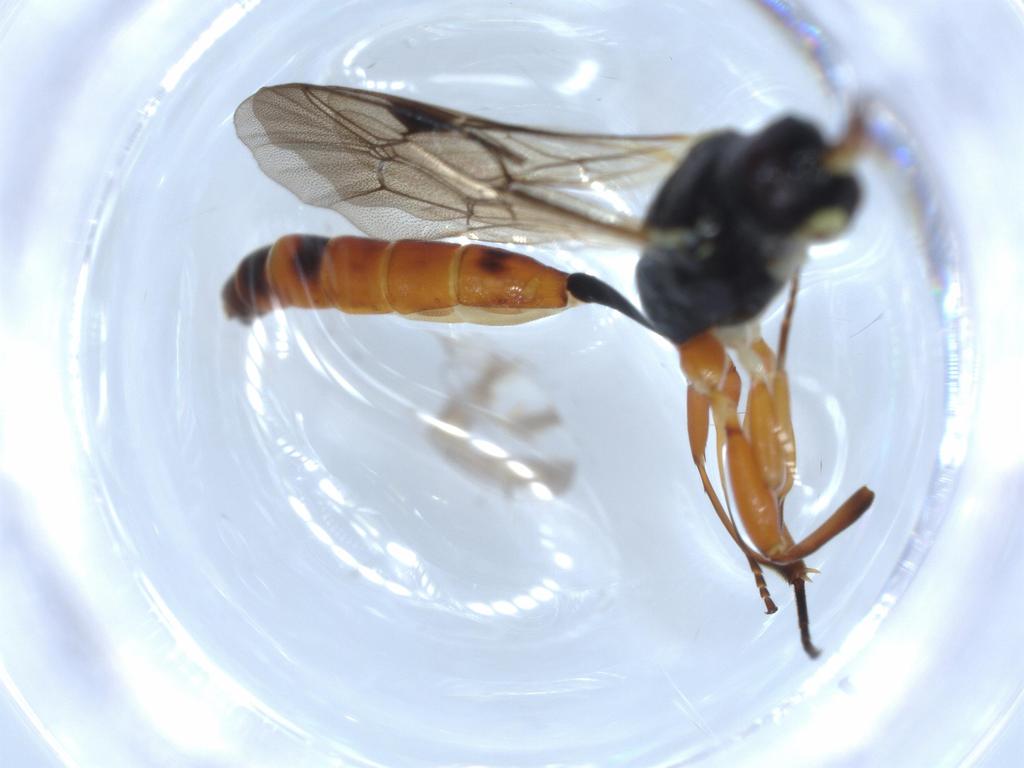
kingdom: Animalia
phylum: Arthropoda
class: Insecta
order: Hymenoptera
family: Ichneumonidae
